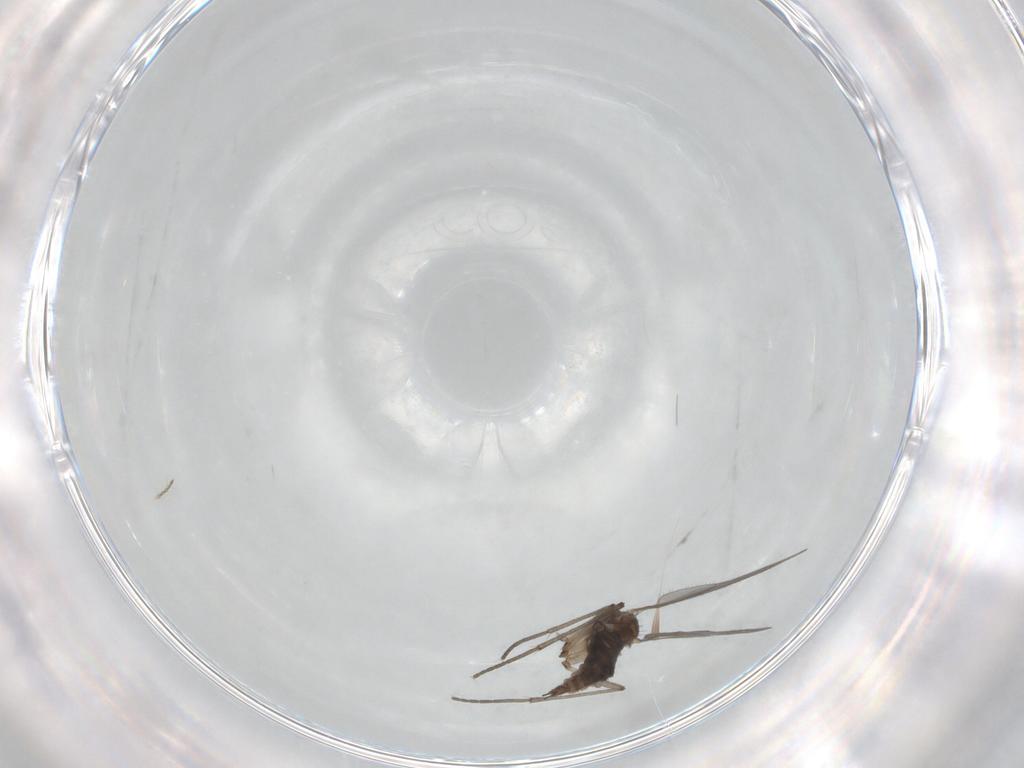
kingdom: Animalia
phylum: Arthropoda
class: Insecta
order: Diptera
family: Sciaridae
